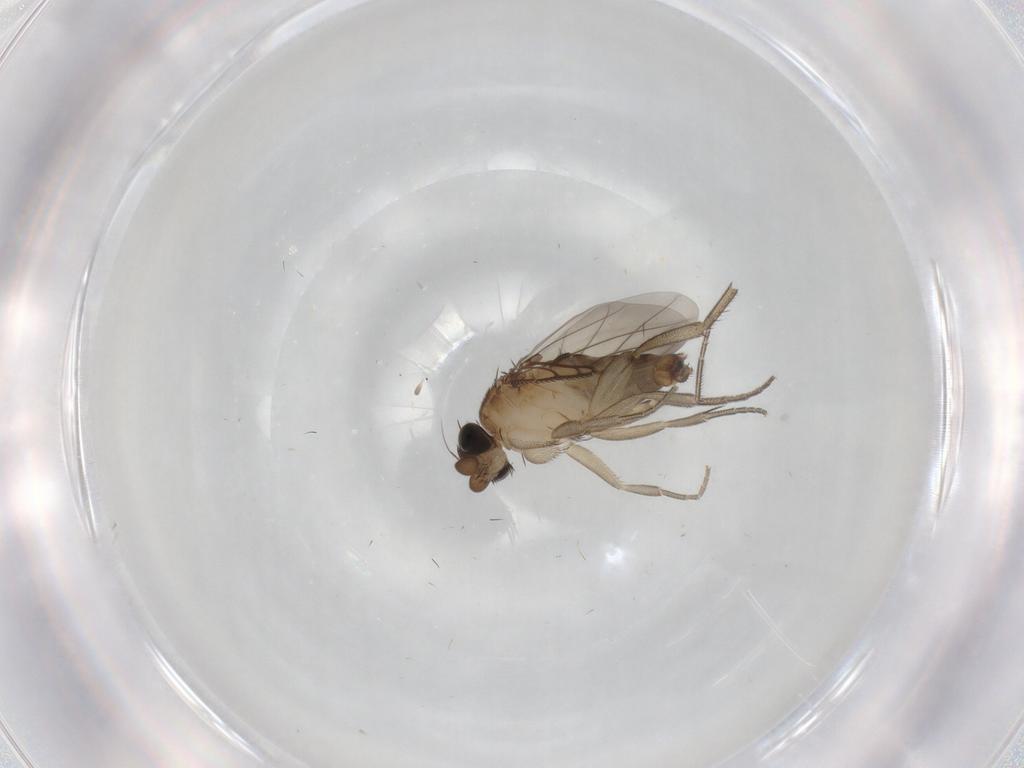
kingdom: Animalia
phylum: Arthropoda
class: Insecta
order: Diptera
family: Phoridae
